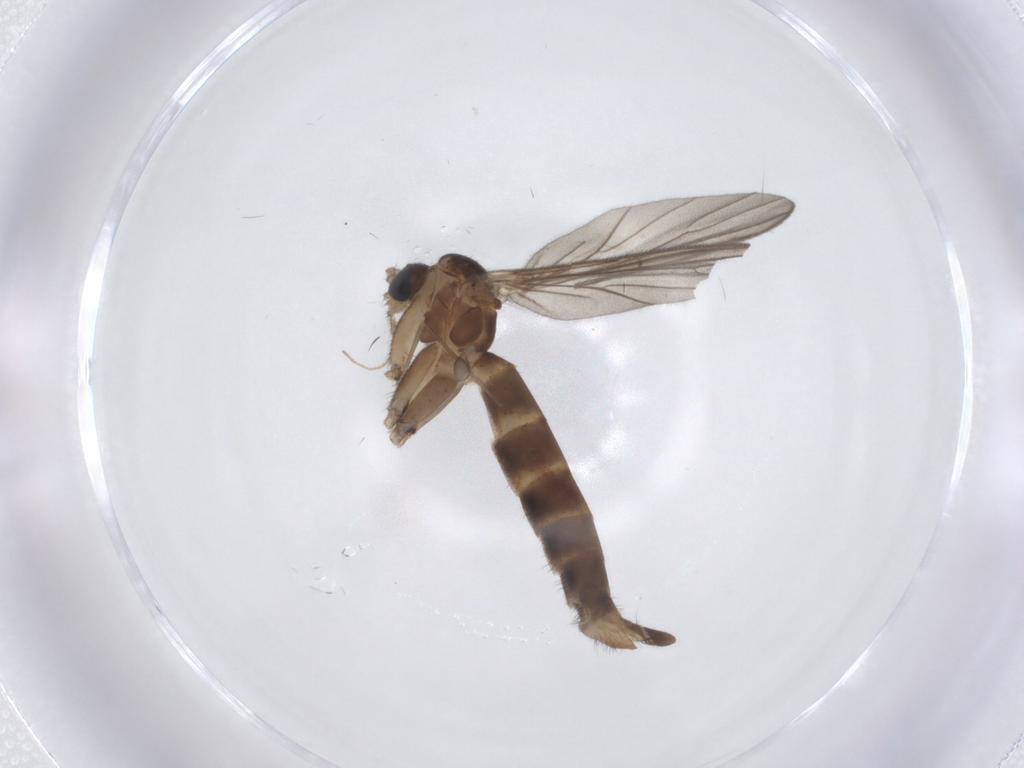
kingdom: Animalia
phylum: Arthropoda
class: Insecta
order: Diptera
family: Cecidomyiidae
